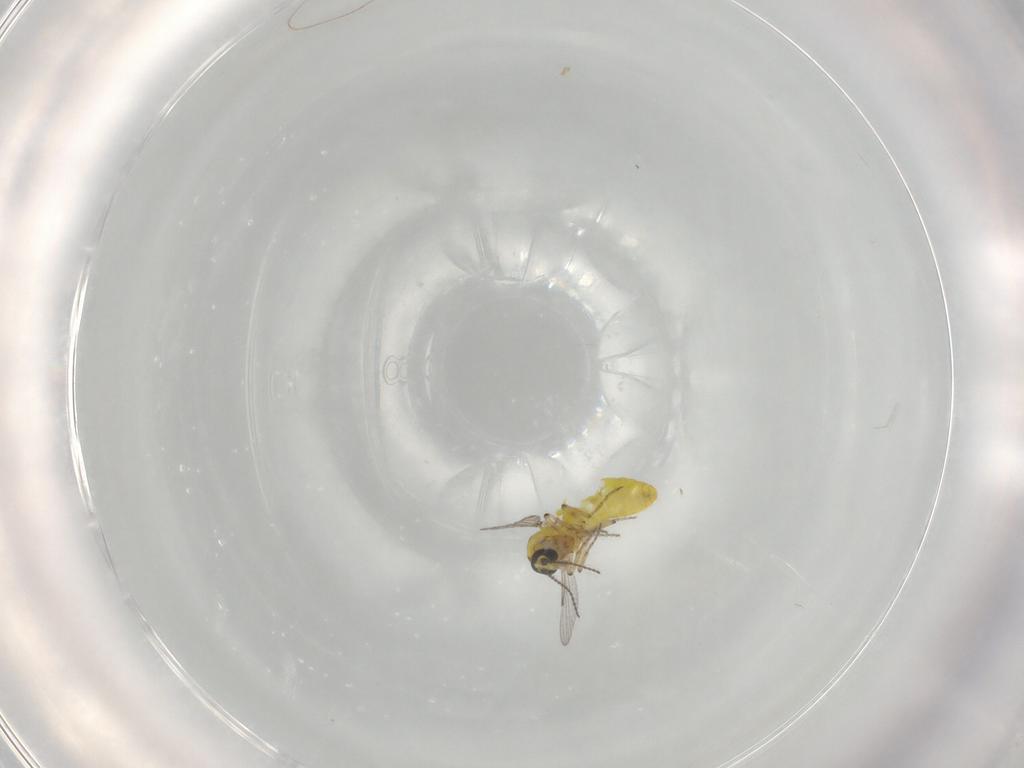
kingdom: Animalia
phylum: Arthropoda
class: Insecta
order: Diptera
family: Ceratopogonidae
